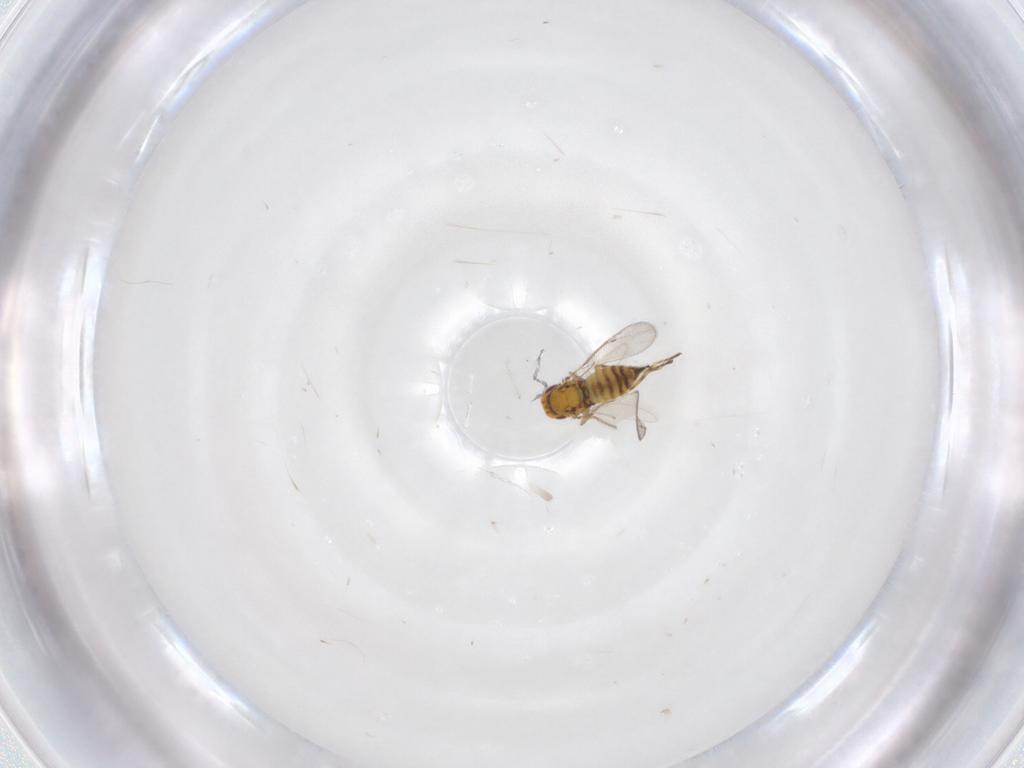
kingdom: Animalia
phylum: Arthropoda
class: Insecta
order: Hymenoptera
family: Eulophidae
